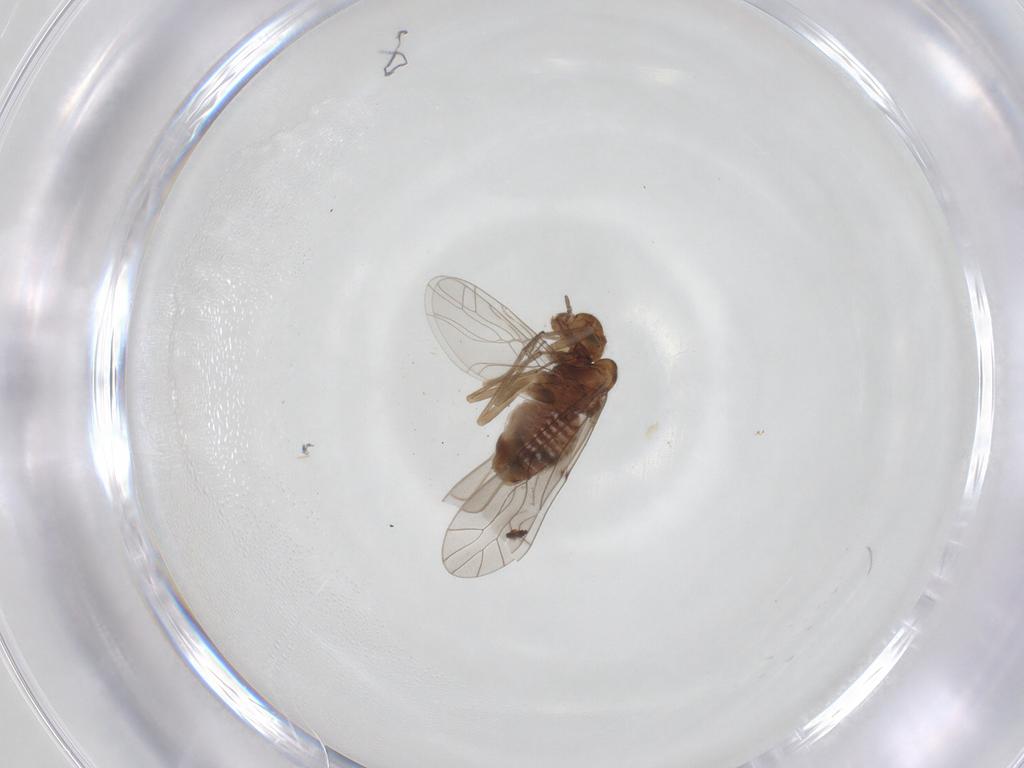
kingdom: Animalia
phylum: Arthropoda
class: Insecta
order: Psocodea
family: Lachesillidae
